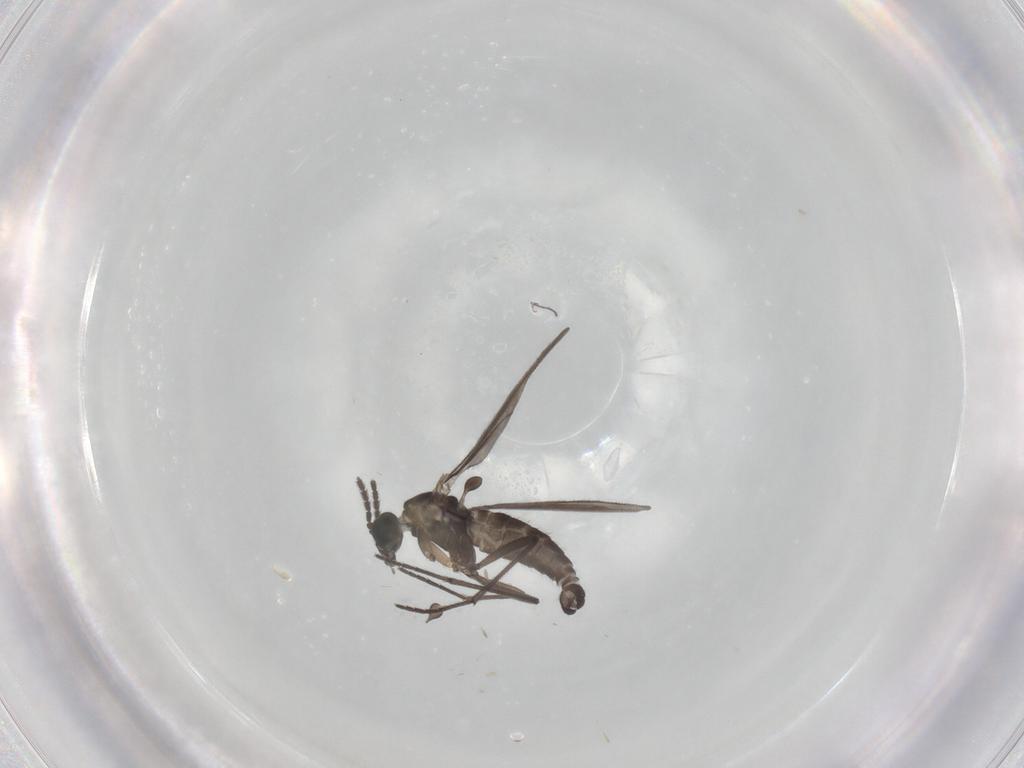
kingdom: Animalia
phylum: Arthropoda
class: Insecta
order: Diptera
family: Sciaridae
